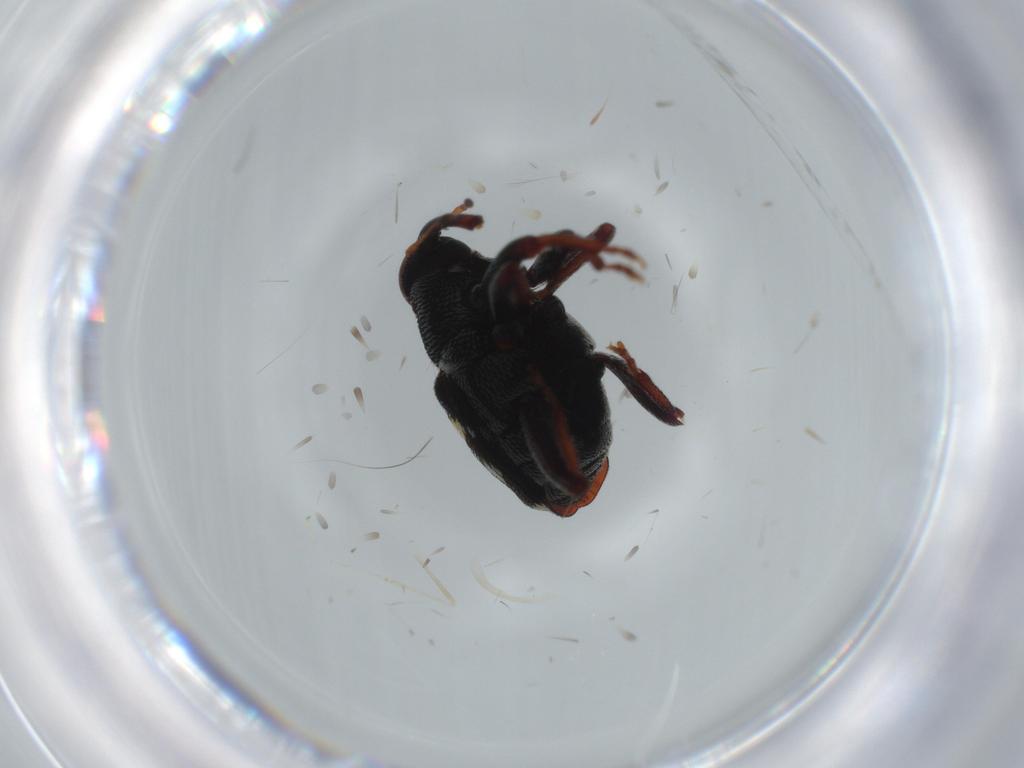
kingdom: Animalia
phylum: Arthropoda
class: Insecta
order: Coleoptera
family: Curculionidae
